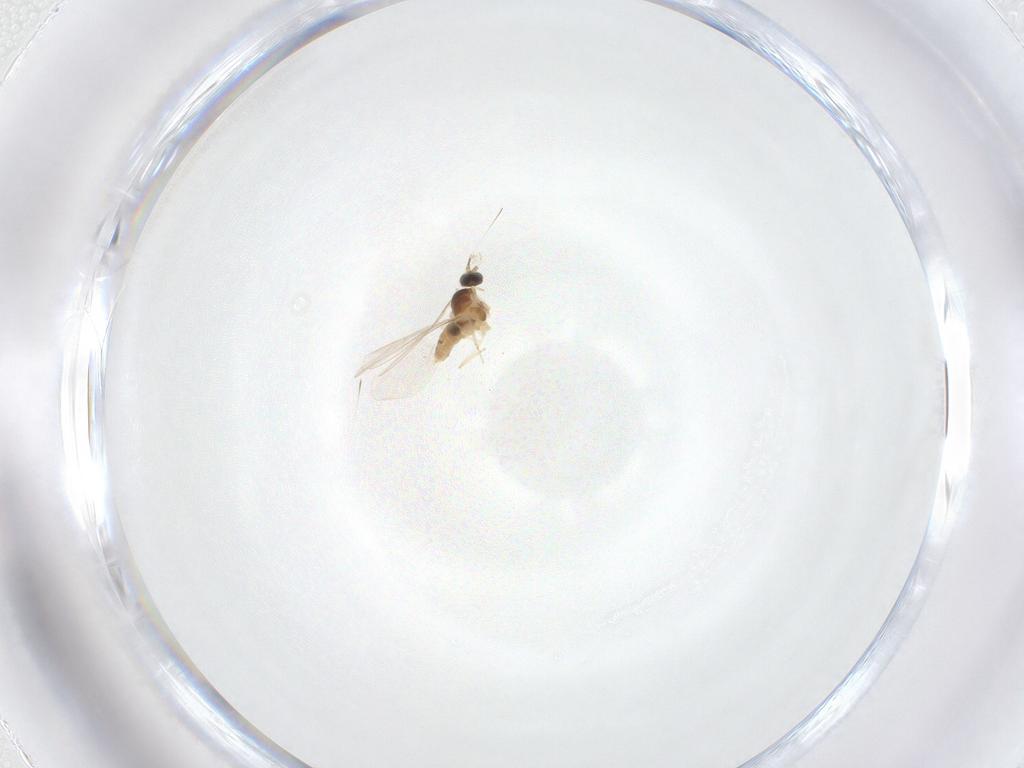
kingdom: Animalia
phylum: Arthropoda
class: Insecta
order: Diptera
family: Cecidomyiidae
